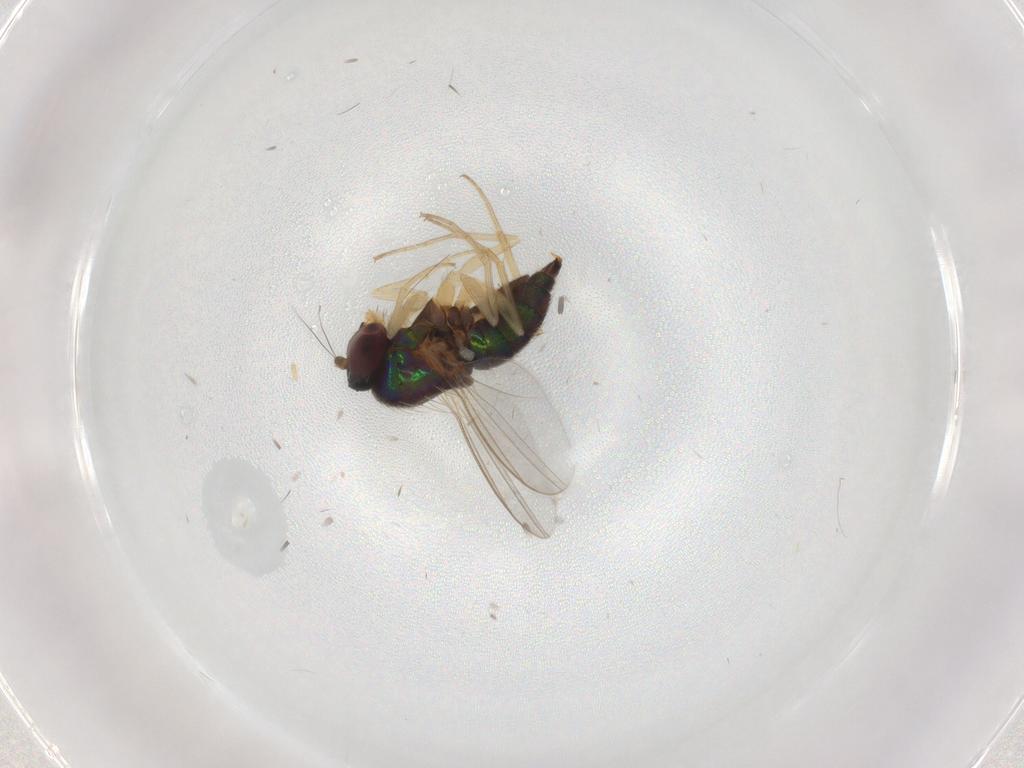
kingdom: Animalia
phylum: Arthropoda
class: Insecta
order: Diptera
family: Dolichopodidae
